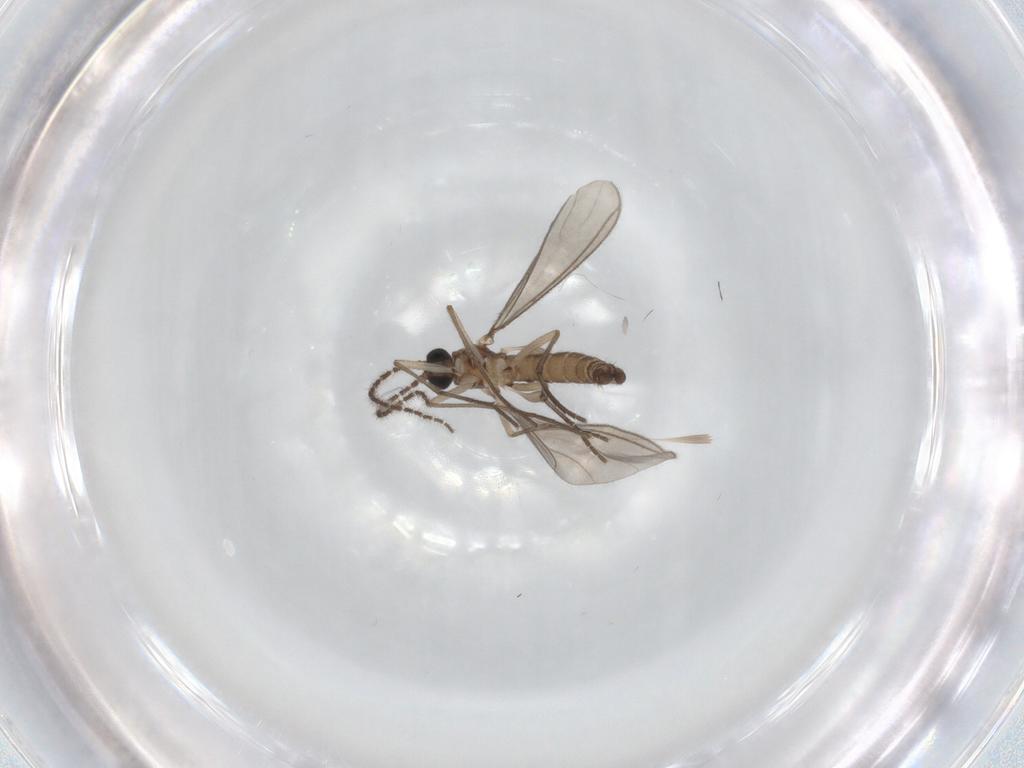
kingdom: Animalia
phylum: Arthropoda
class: Insecta
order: Diptera
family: Sciaridae
